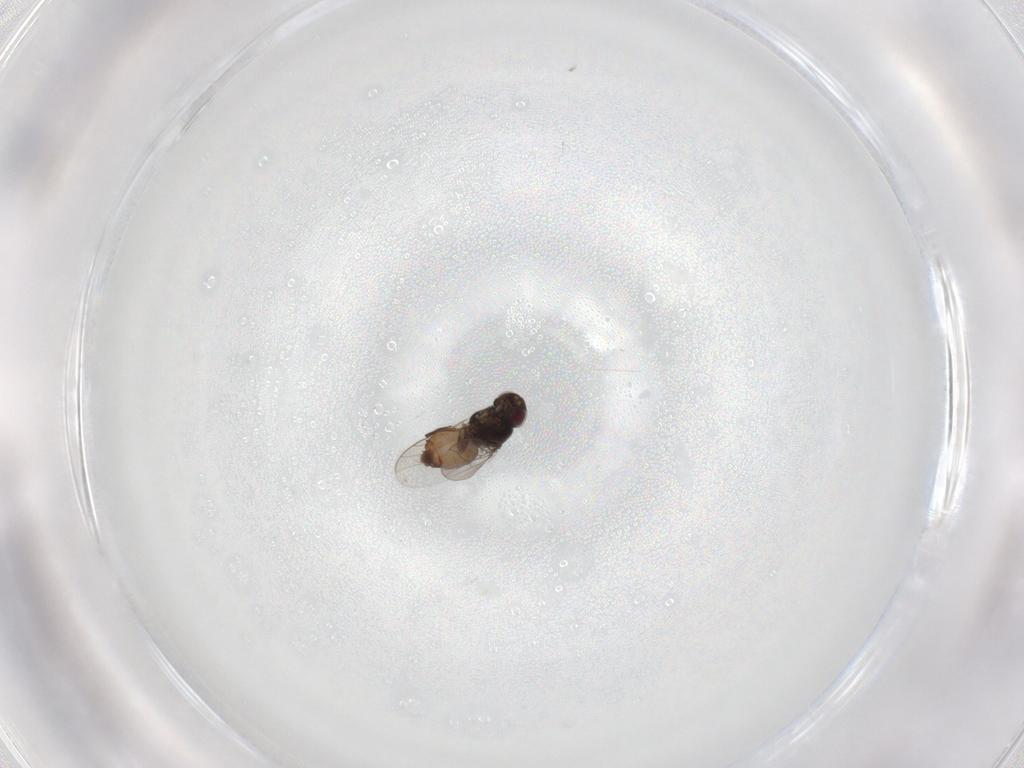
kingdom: Animalia
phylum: Arthropoda
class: Insecta
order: Diptera
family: Chloropidae
